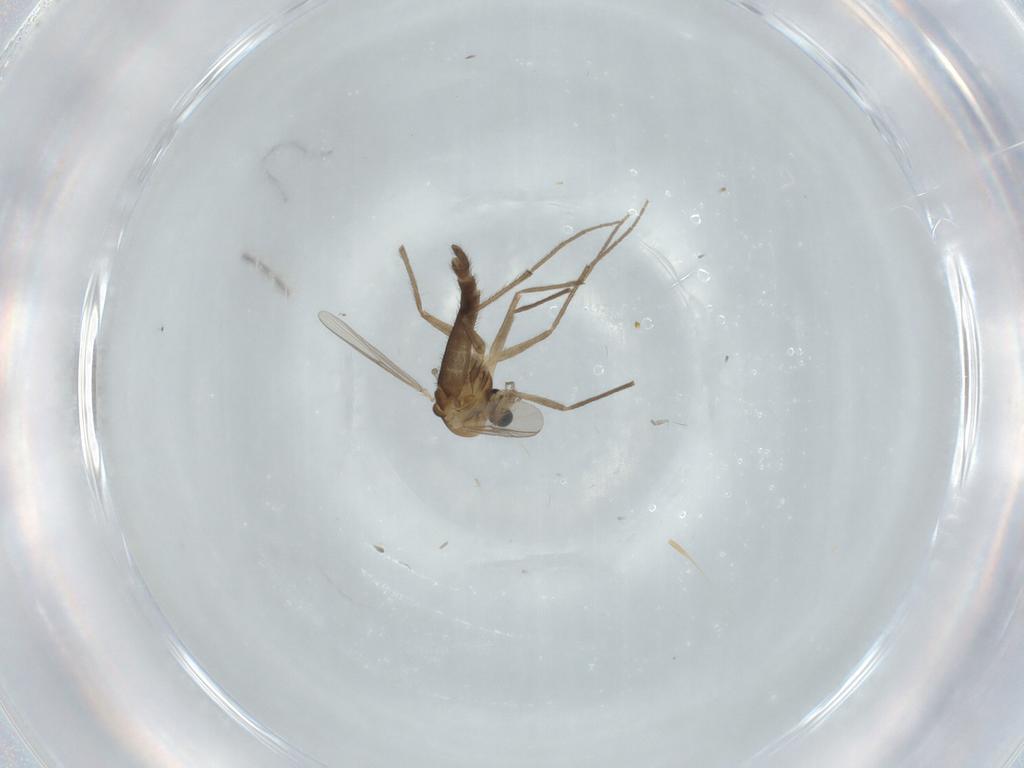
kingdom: Animalia
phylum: Arthropoda
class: Insecta
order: Diptera
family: Chironomidae
